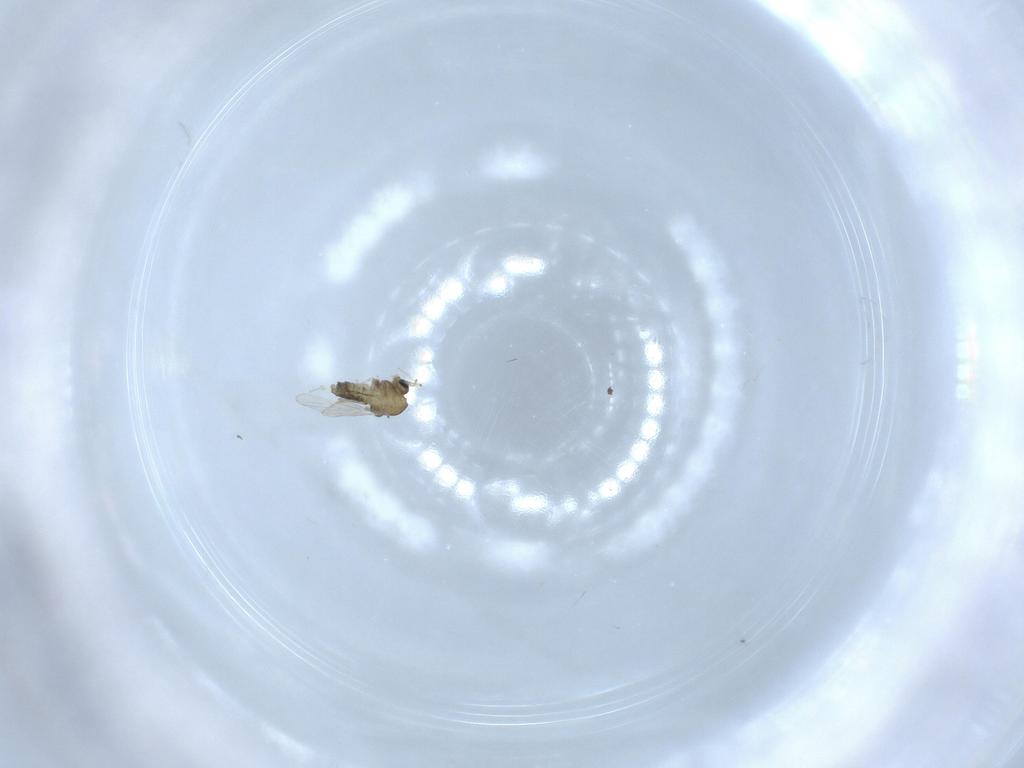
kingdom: Animalia
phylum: Arthropoda
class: Insecta
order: Diptera
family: Chironomidae
